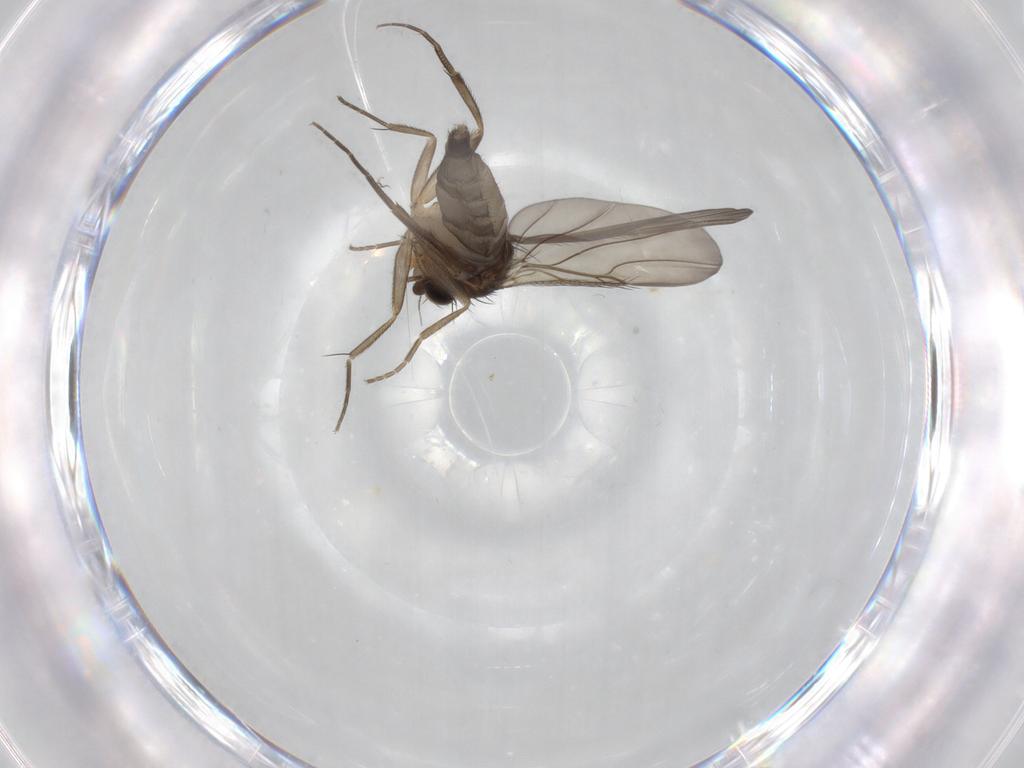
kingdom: Animalia
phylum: Arthropoda
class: Insecta
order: Diptera
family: Phoridae
